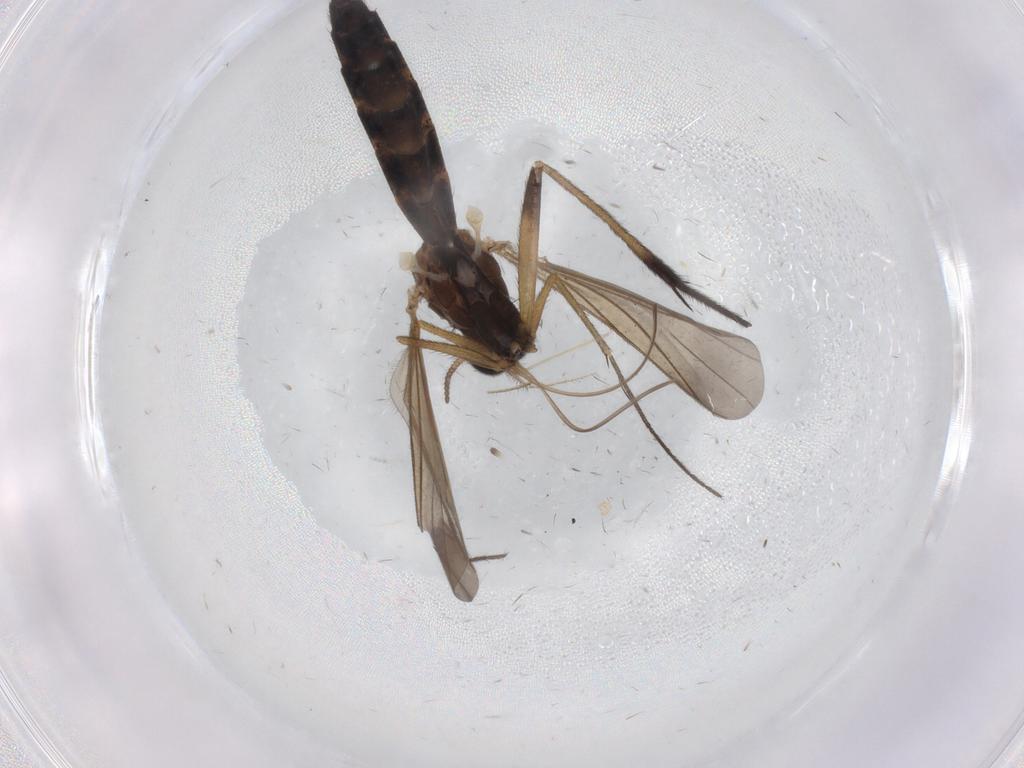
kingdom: Animalia
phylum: Arthropoda
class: Insecta
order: Diptera
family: Keroplatidae
